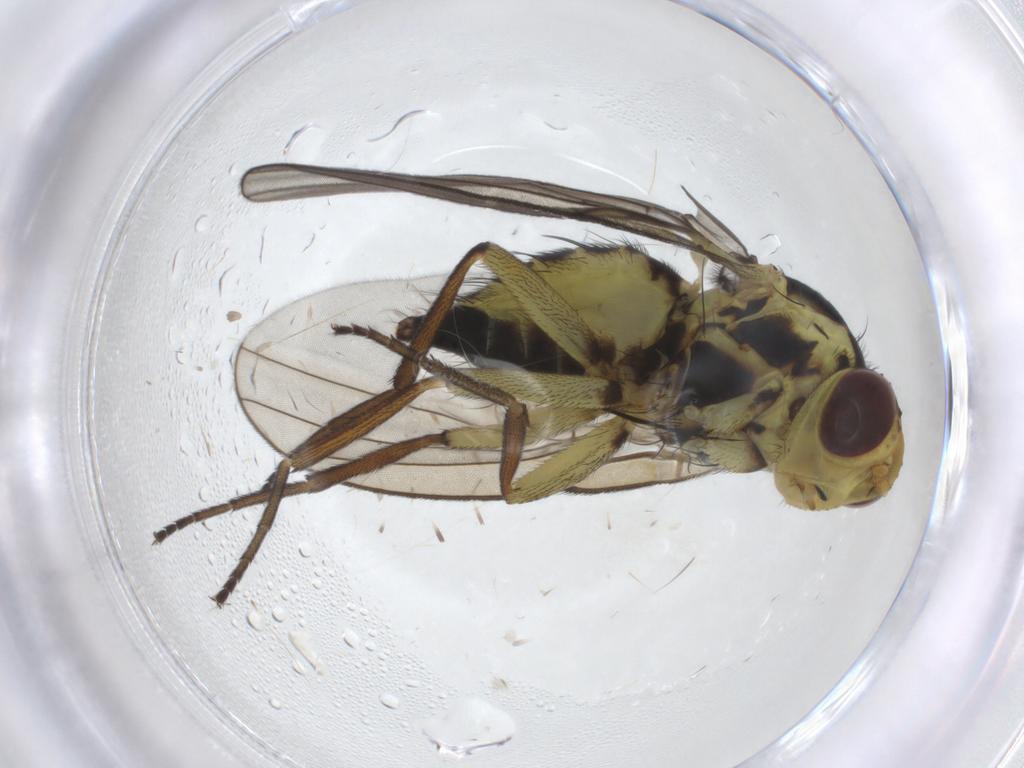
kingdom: Animalia
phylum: Arthropoda
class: Insecta
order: Diptera
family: Agromyzidae
